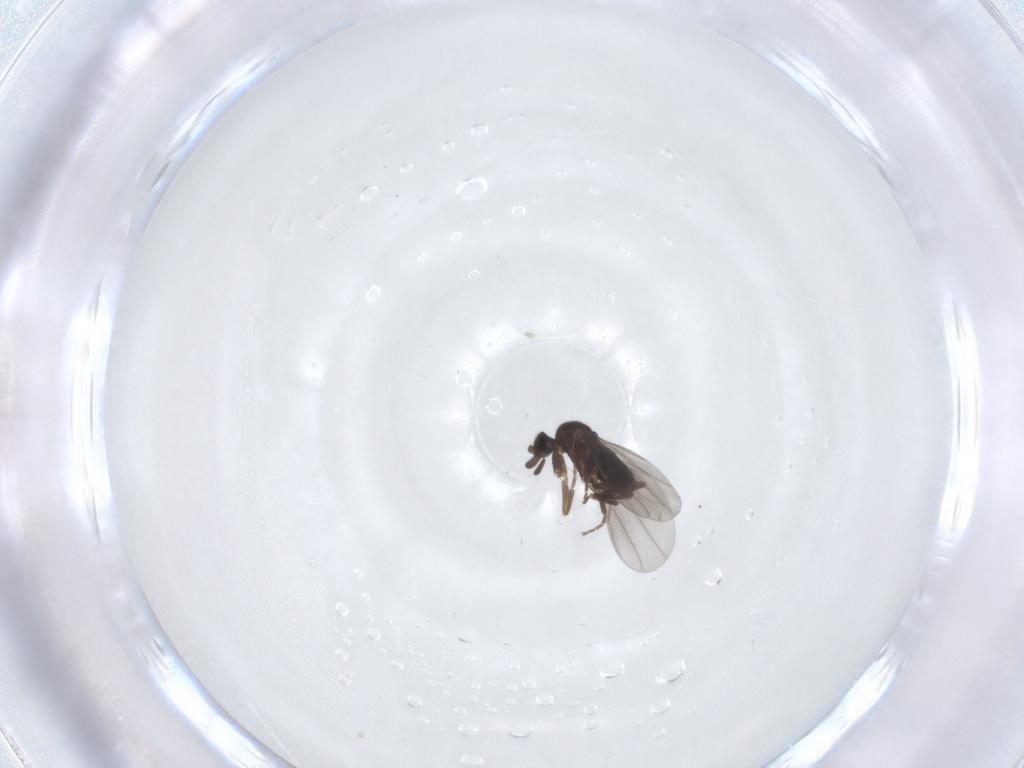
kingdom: Animalia
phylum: Arthropoda
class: Insecta
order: Diptera
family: Phoridae
